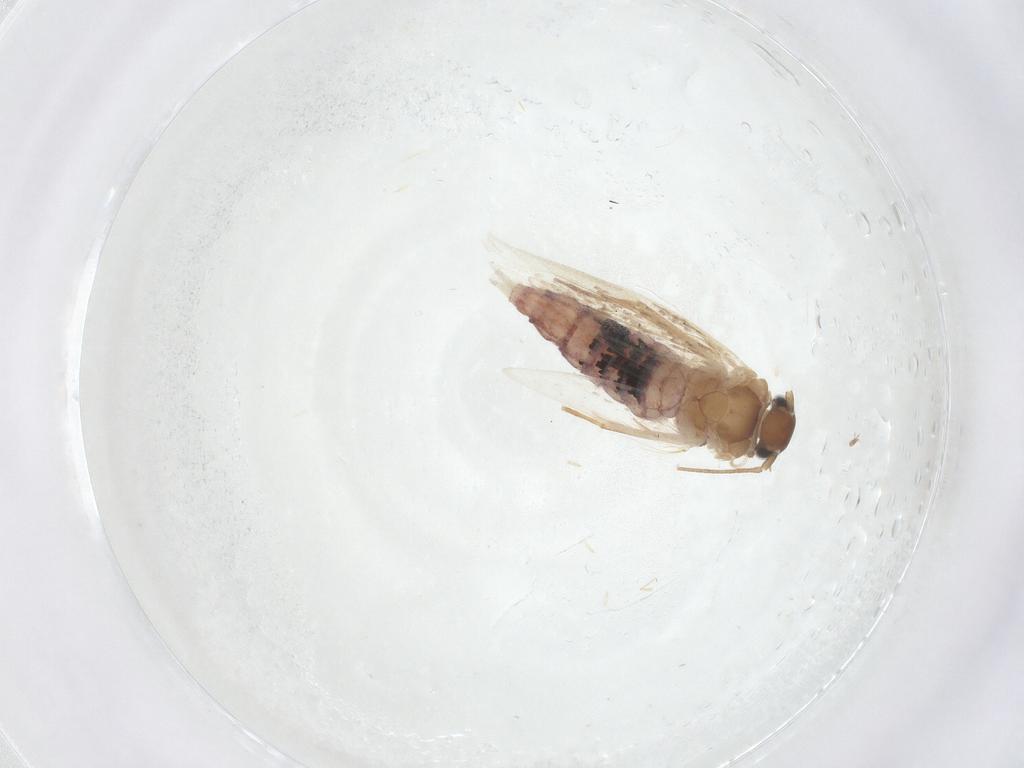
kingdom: Animalia
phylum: Arthropoda
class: Insecta
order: Lepidoptera
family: Cosmopterigidae
